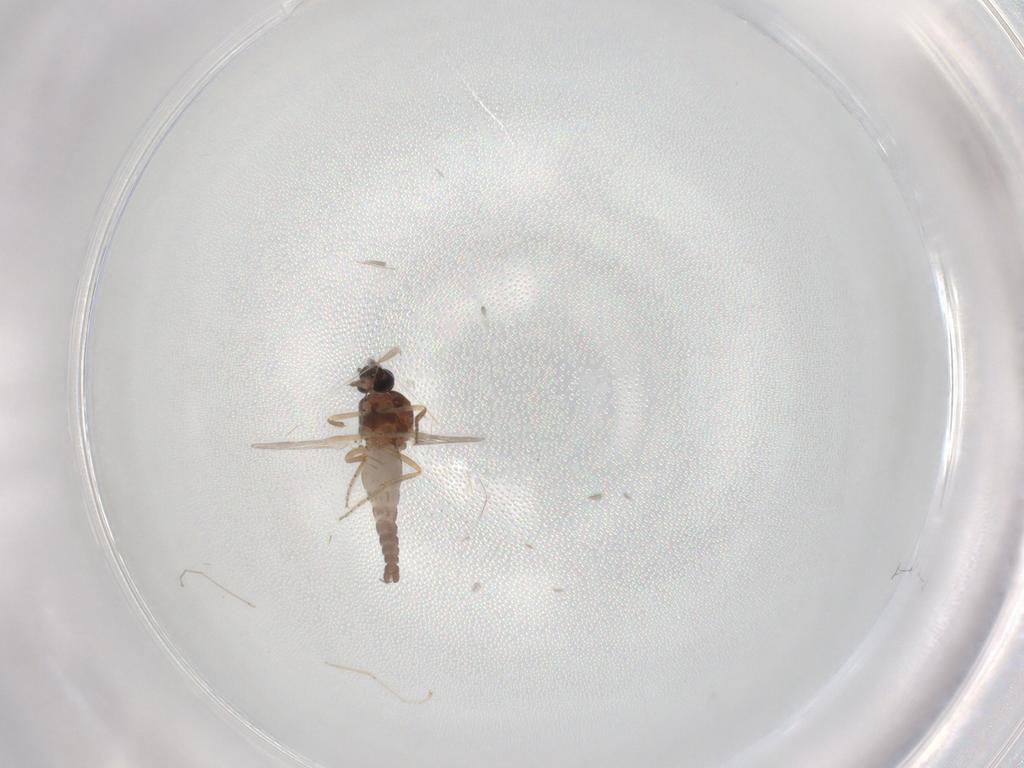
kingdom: Animalia
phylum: Arthropoda
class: Insecta
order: Diptera
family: Ceratopogonidae
